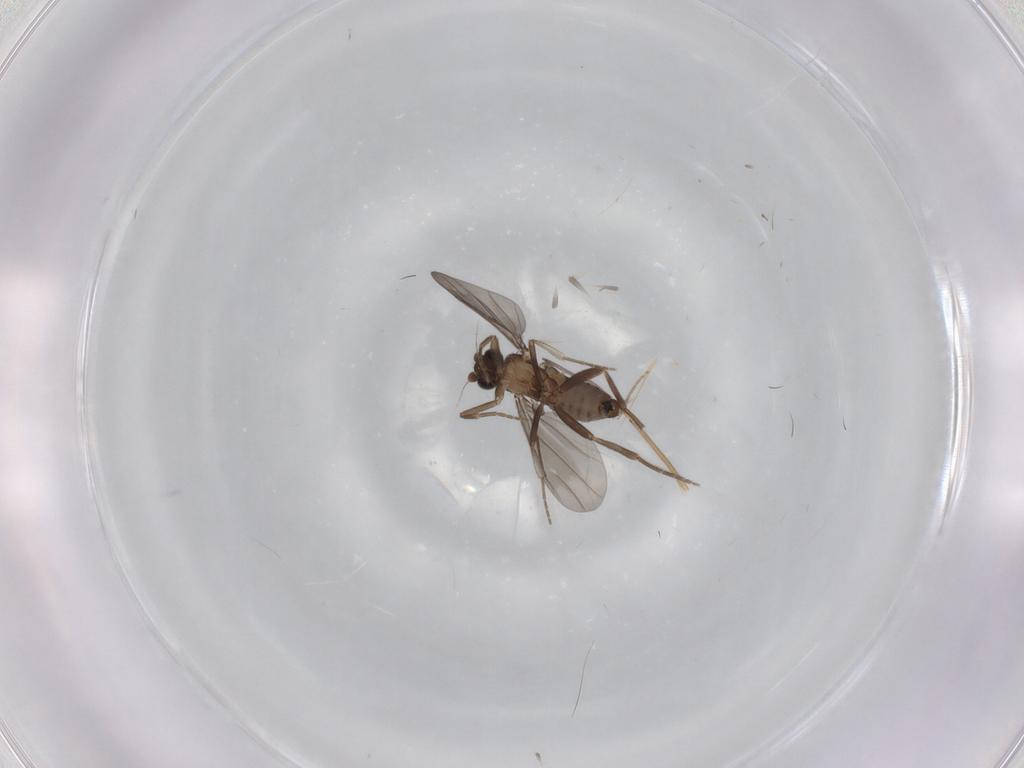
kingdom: Animalia
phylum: Arthropoda
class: Insecta
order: Diptera
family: Phoridae
